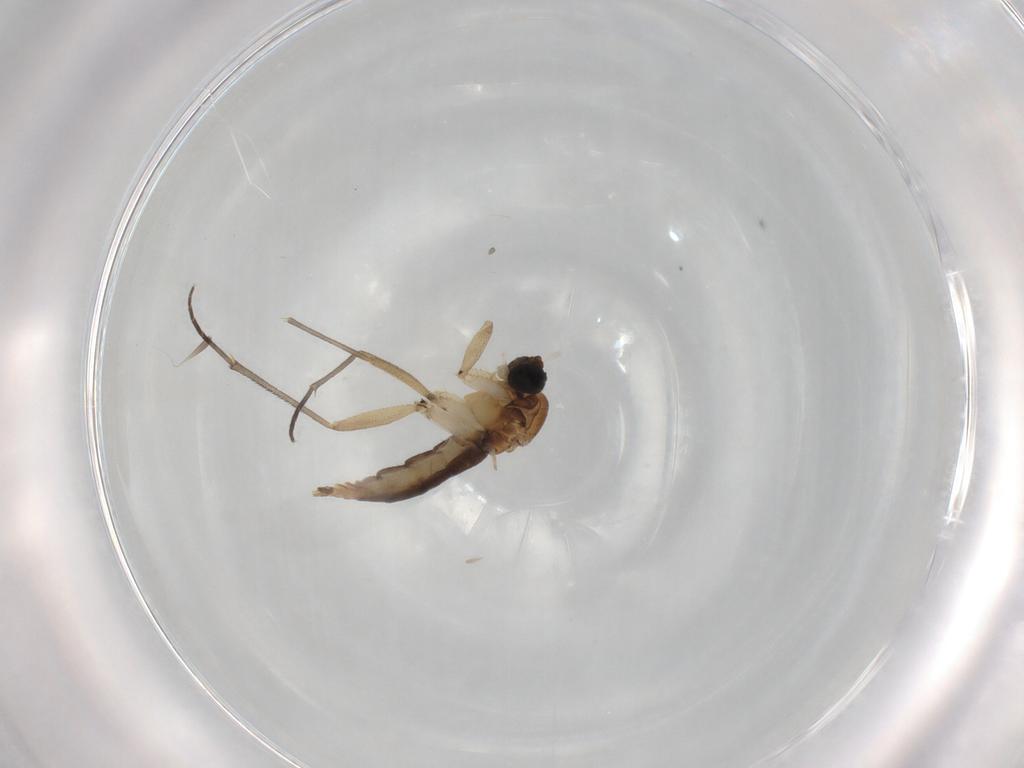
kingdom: Animalia
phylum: Arthropoda
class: Insecta
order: Diptera
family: Sciaridae
